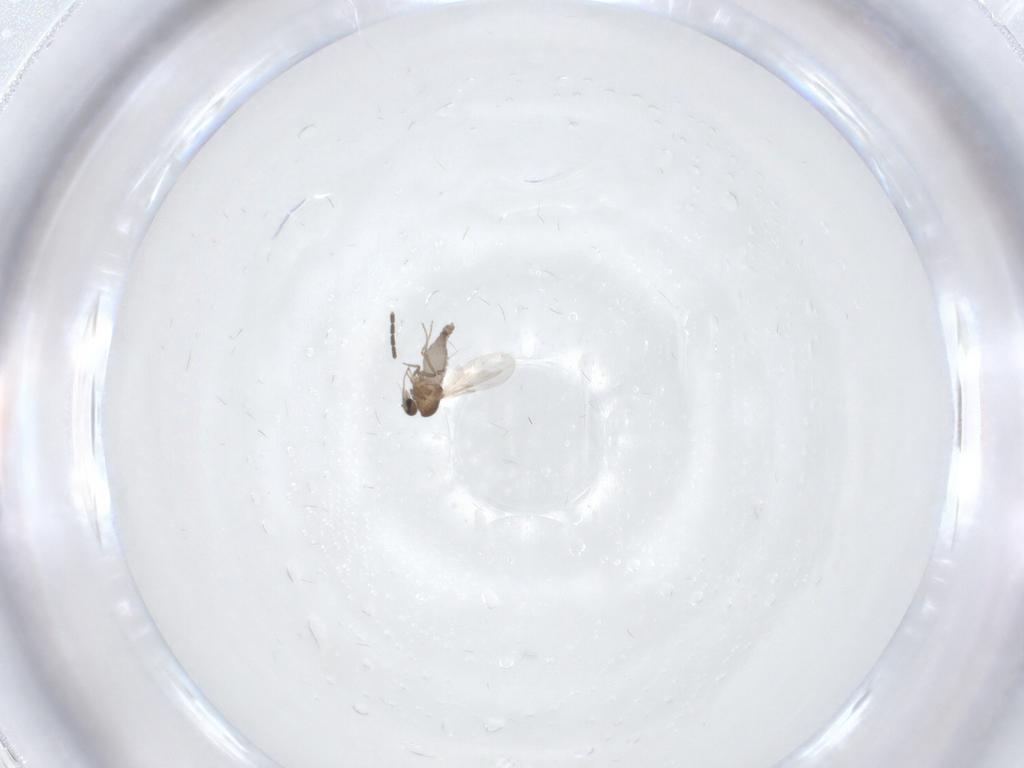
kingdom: Animalia
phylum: Arthropoda
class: Insecta
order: Diptera
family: Sciaridae
